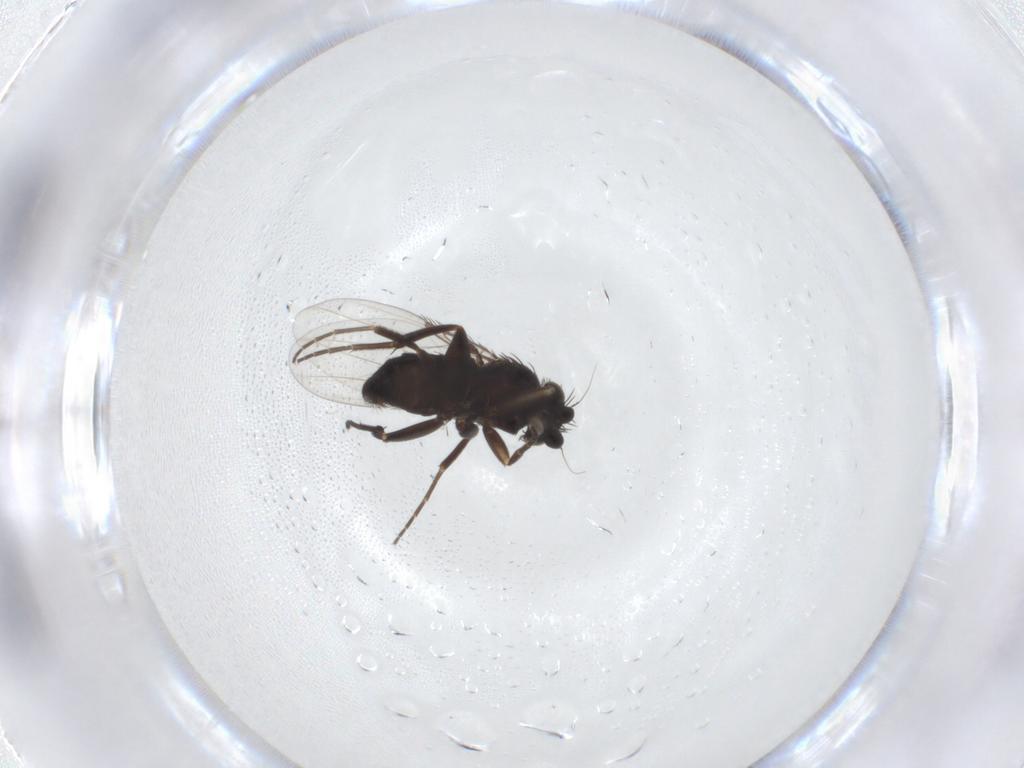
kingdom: Animalia
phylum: Arthropoda
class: Insecta
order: Diptera
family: Phoridae
